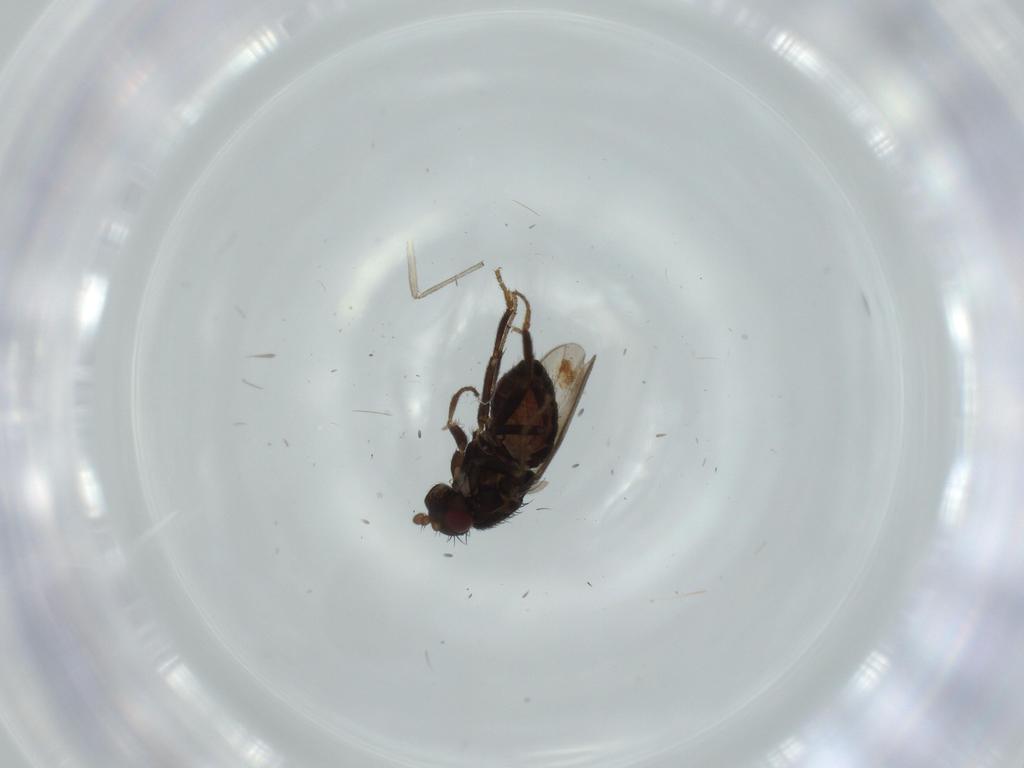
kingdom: Animalia
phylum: Arthropoda
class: Insecta
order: Diptera
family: Chironomidae
